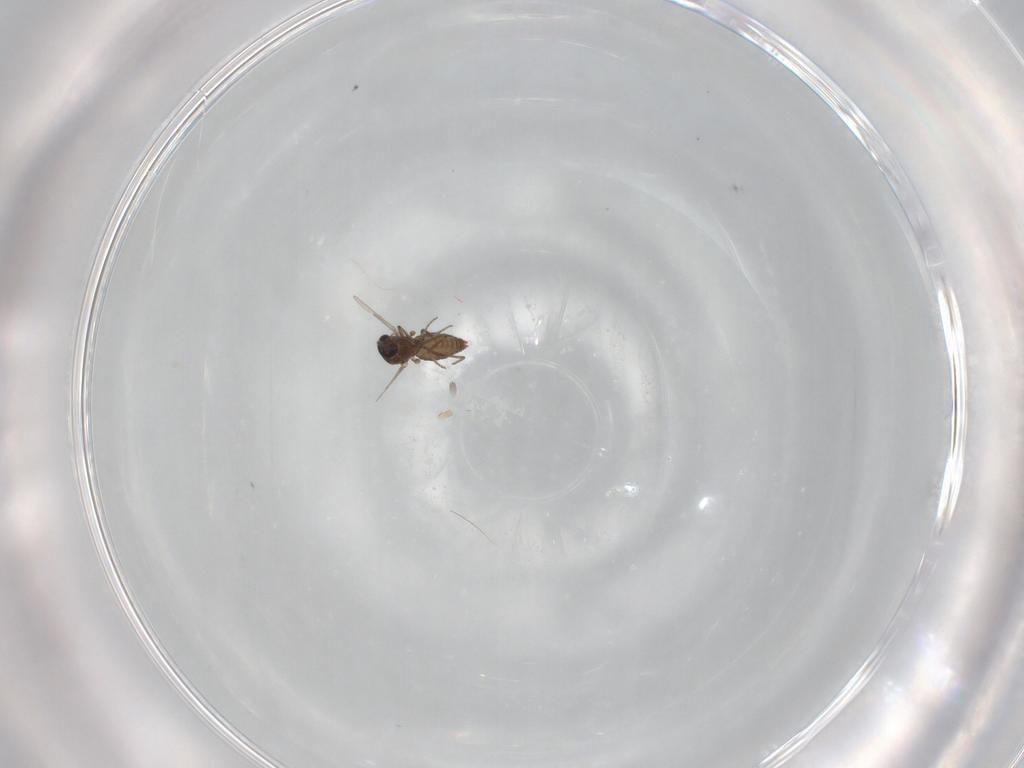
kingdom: Animalia
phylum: Arthropoda
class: Insecta
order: Diptera
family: Ceratopogonidae
